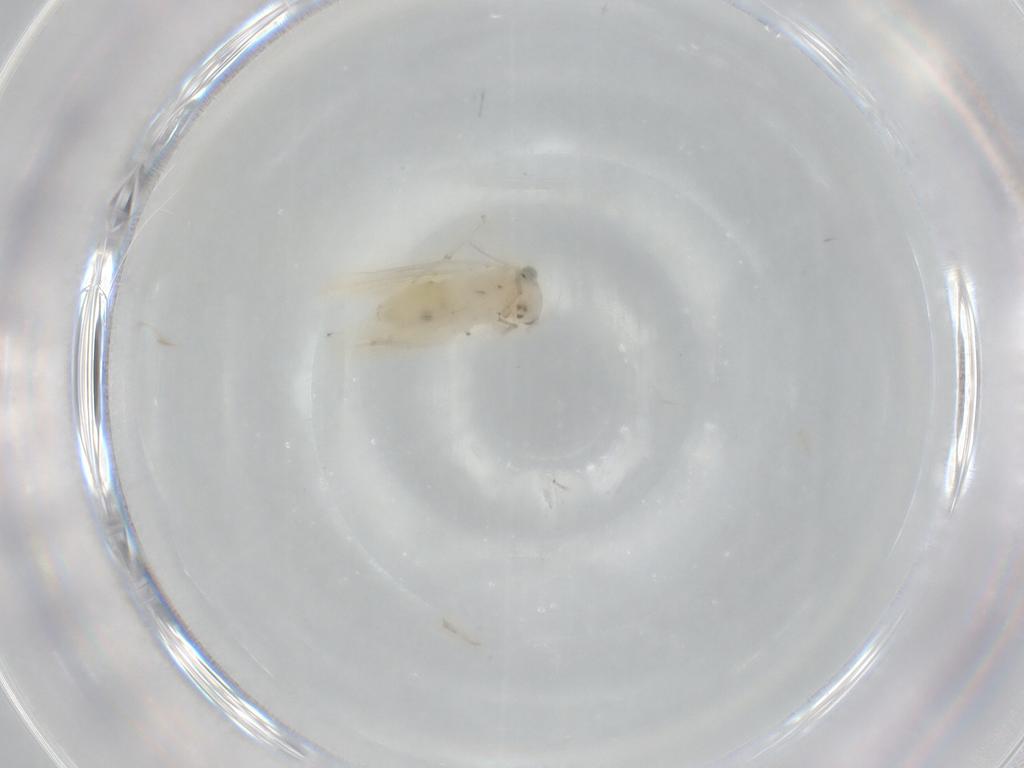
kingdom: Animalia
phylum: Arthropoda
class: Insecta
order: Psocodea
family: Lepidopsocidae
